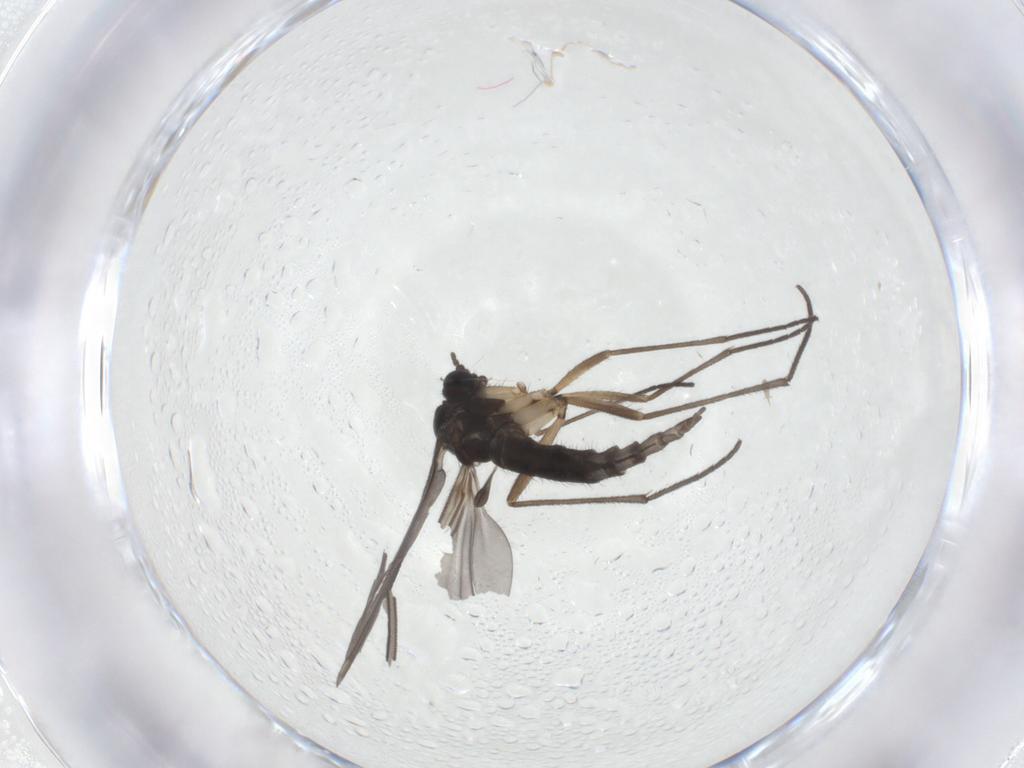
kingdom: Animalia
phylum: Arthropoda
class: Insecta
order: Diptera
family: Sciaridae
